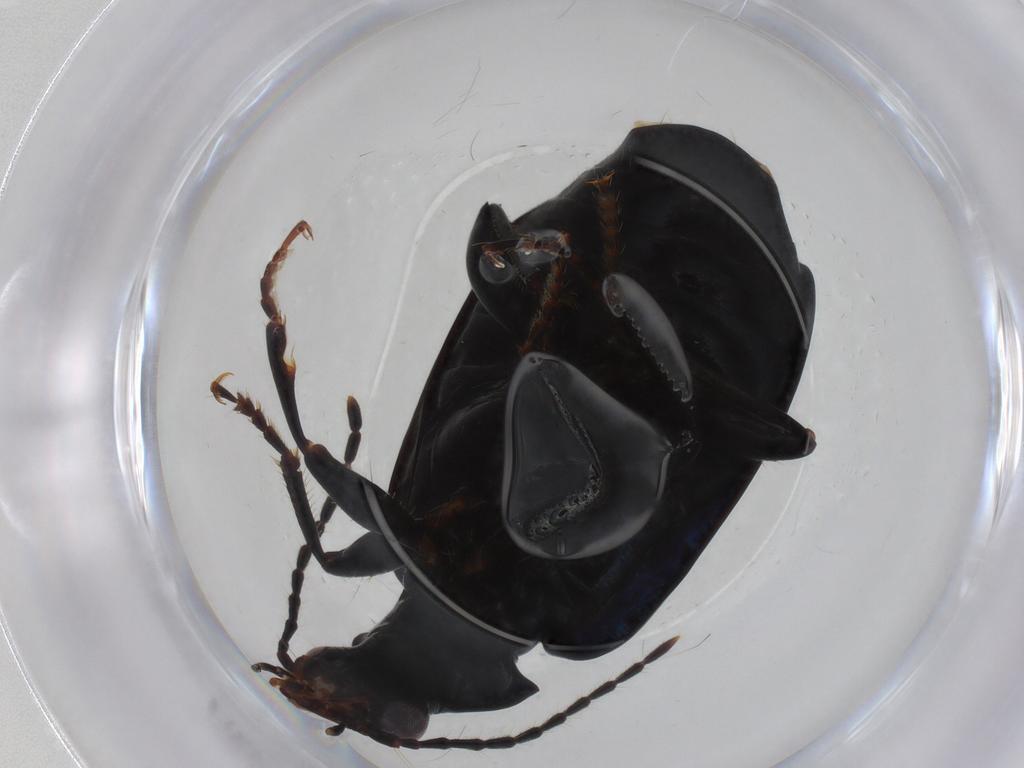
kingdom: Animalia
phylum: Arthropoda
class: Insecta
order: Coleoptera
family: Carabidae
